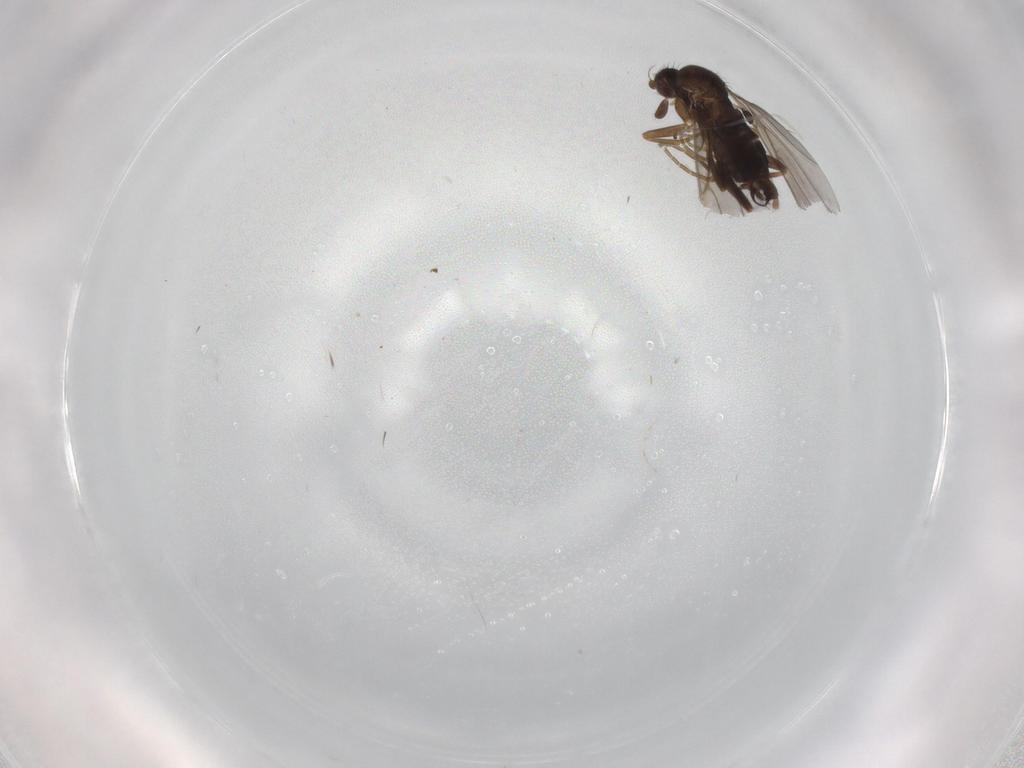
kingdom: Animalia
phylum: Arthropoda
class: Insecta
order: Diptera
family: Phoridae
